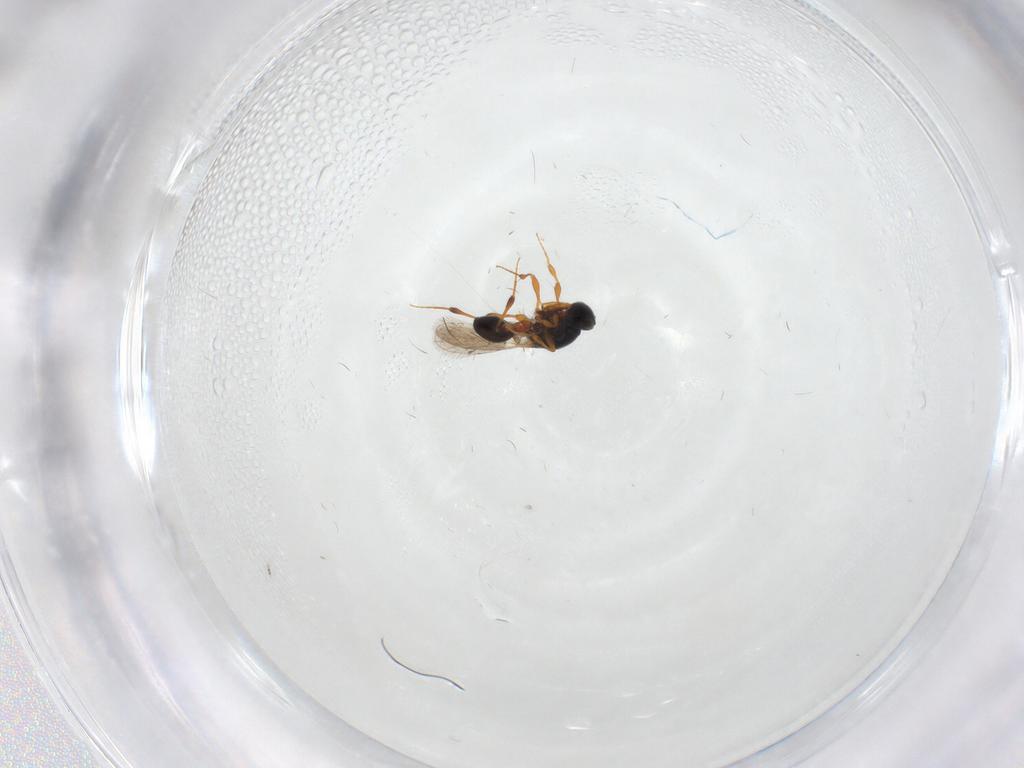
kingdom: Animalia
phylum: Arthropoda
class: Insecta
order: Hymenoptera
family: Platygastridae
